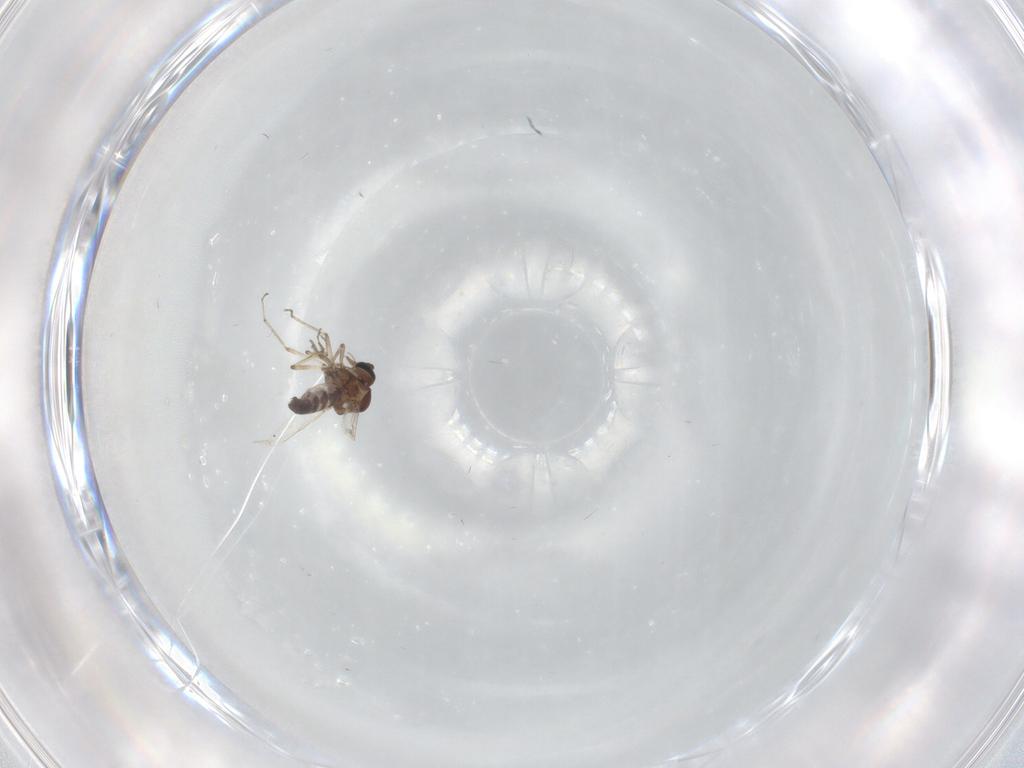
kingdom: Animalia
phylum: Arthropoda
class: Insecta
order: Diptera
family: Ceratopogonidae
